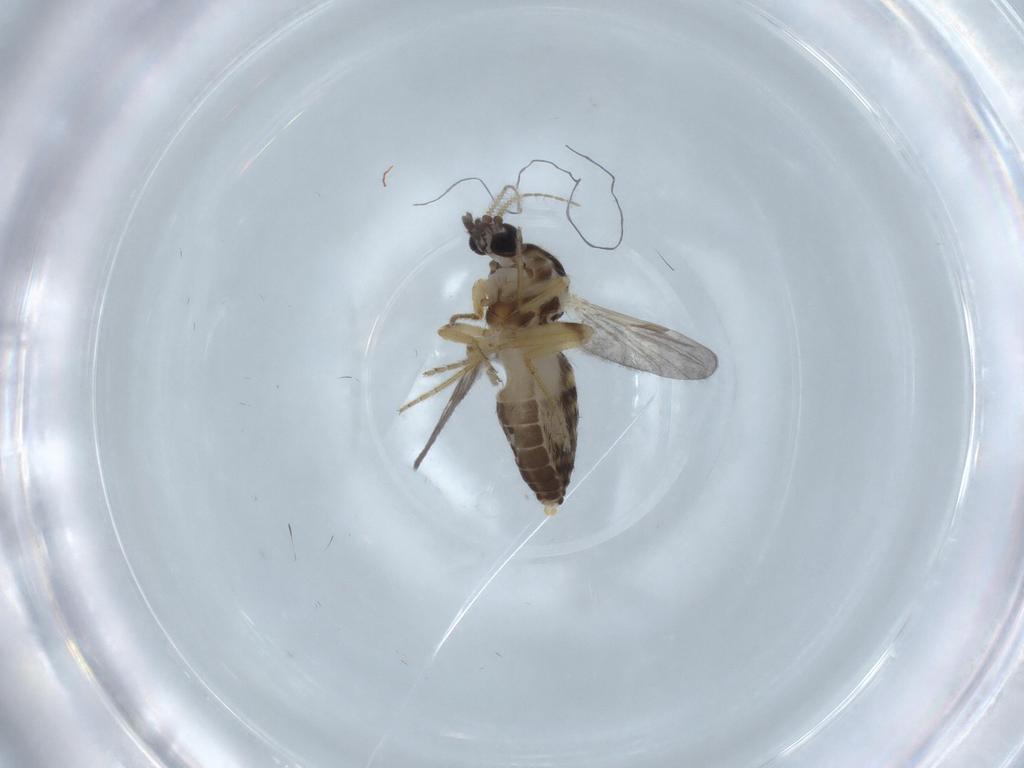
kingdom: Animalia
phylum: Arthropoda
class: Insecta
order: Diptera
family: Ceratopogonidae
